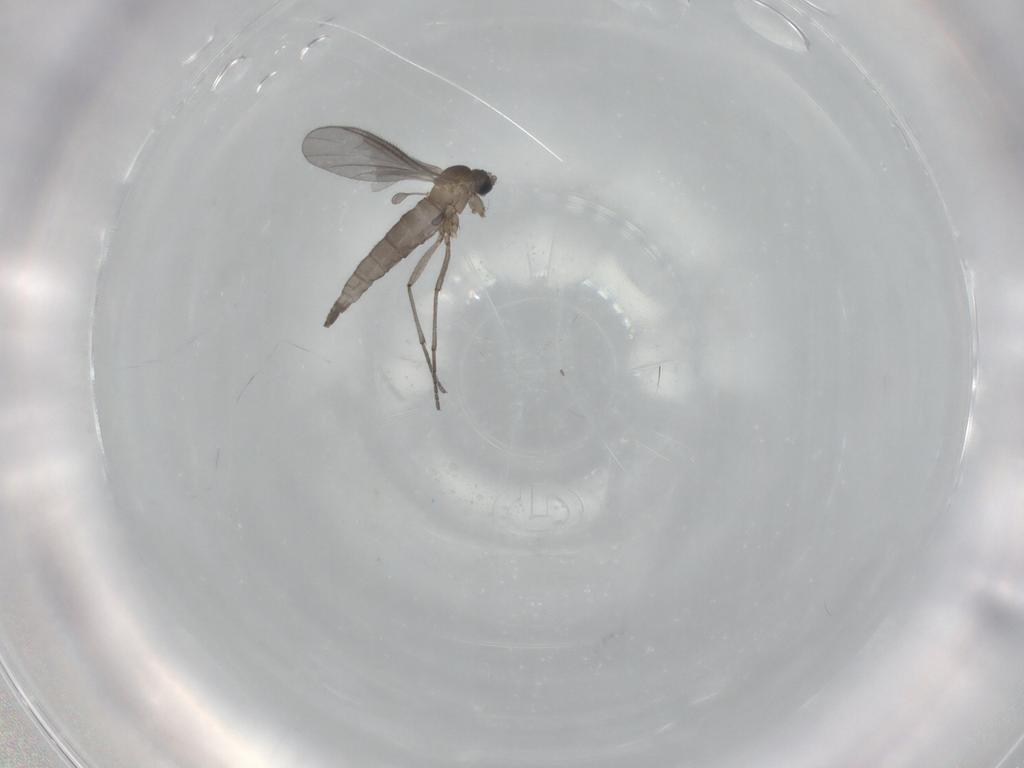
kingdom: Animalia
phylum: Arthropoda
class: Insecta
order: Diptera
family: Sciaridae
